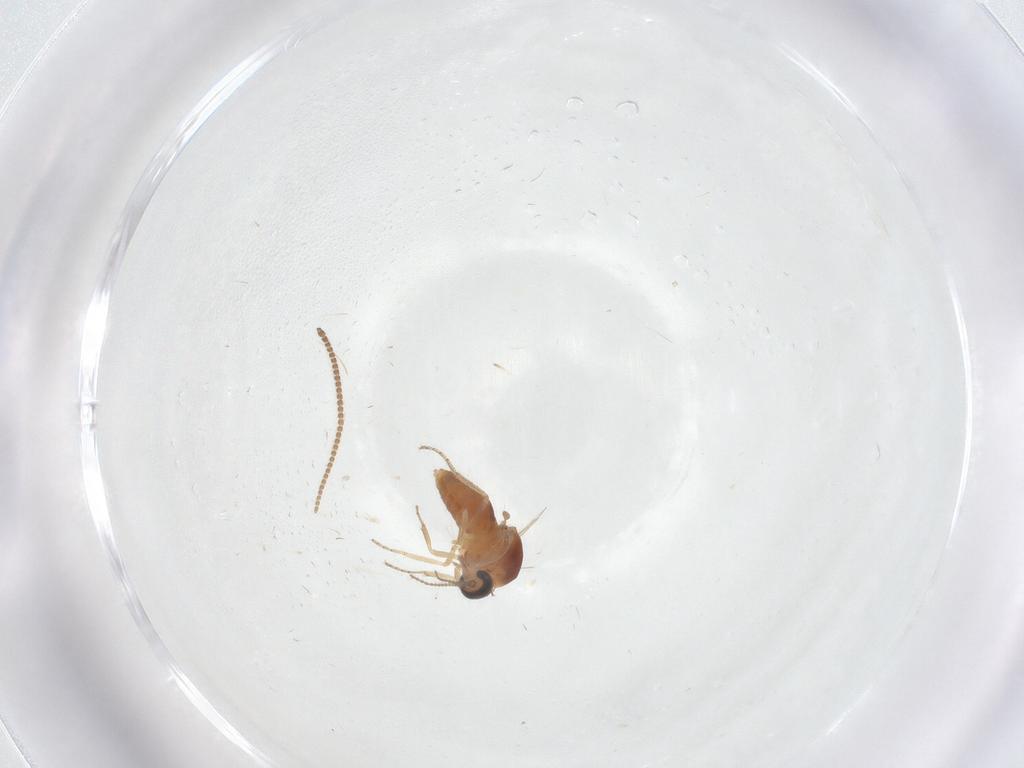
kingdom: Animalia
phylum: Arthropoda
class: Insecta
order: Diptera
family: Ceratopogonidae
